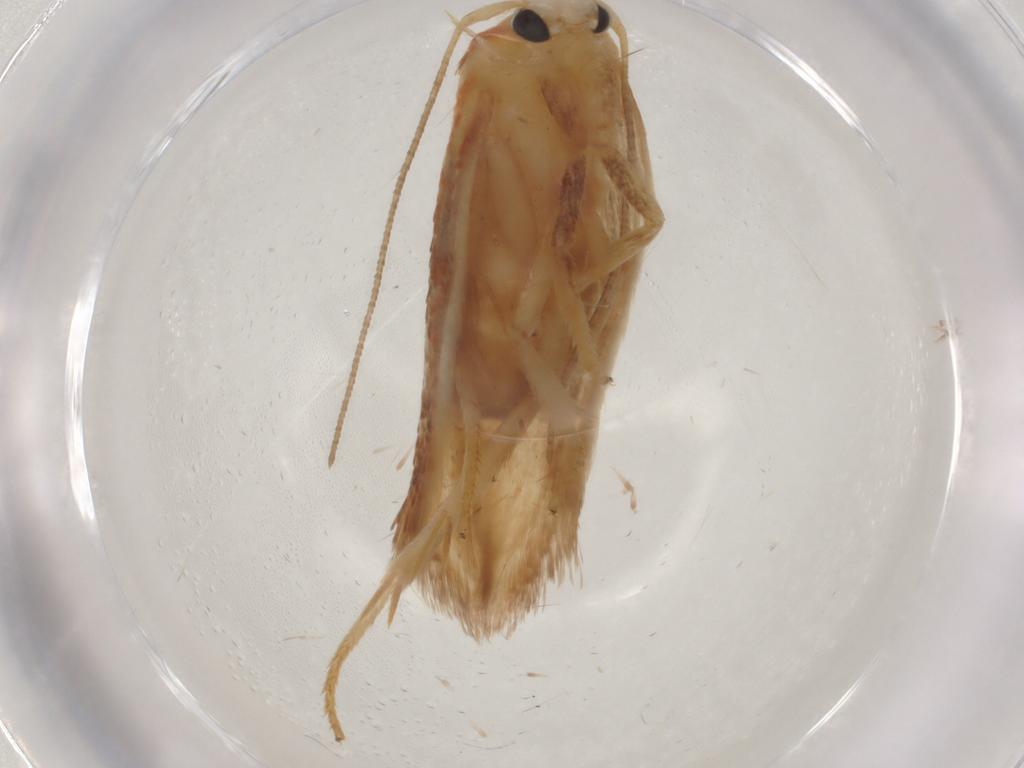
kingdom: Animalia
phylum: Arthropoda
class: Insecta
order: Lepidoptera
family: Geometridae
